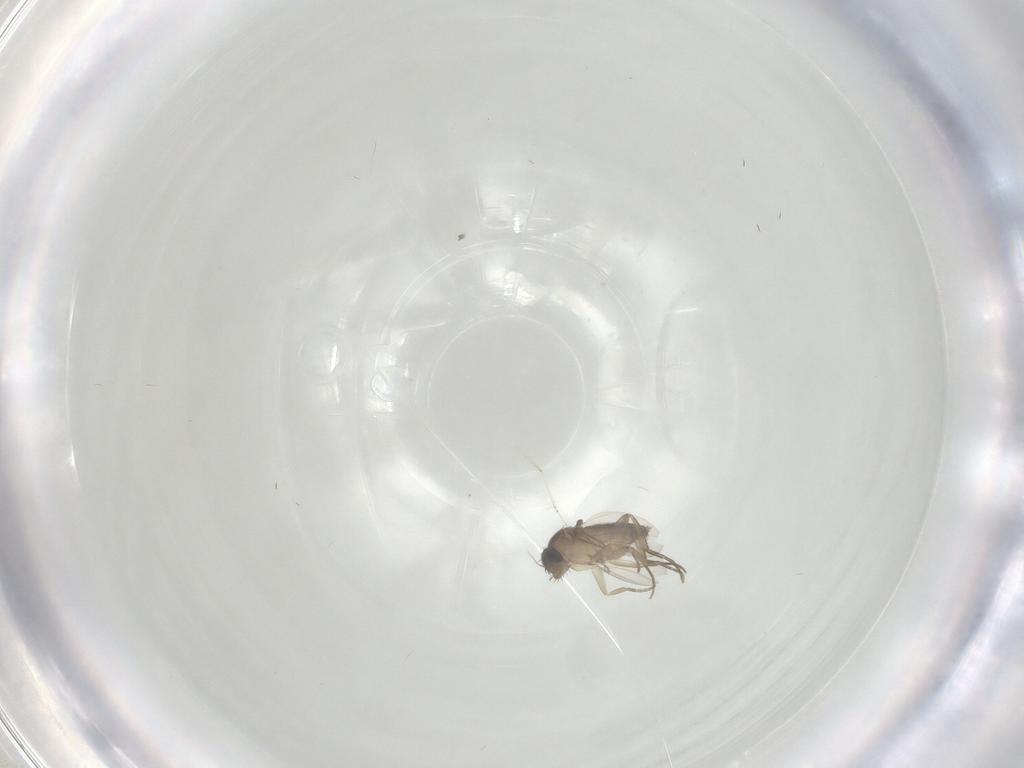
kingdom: Animalia
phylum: Arthropoda
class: Insecta
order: Diptera
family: Phoridae
